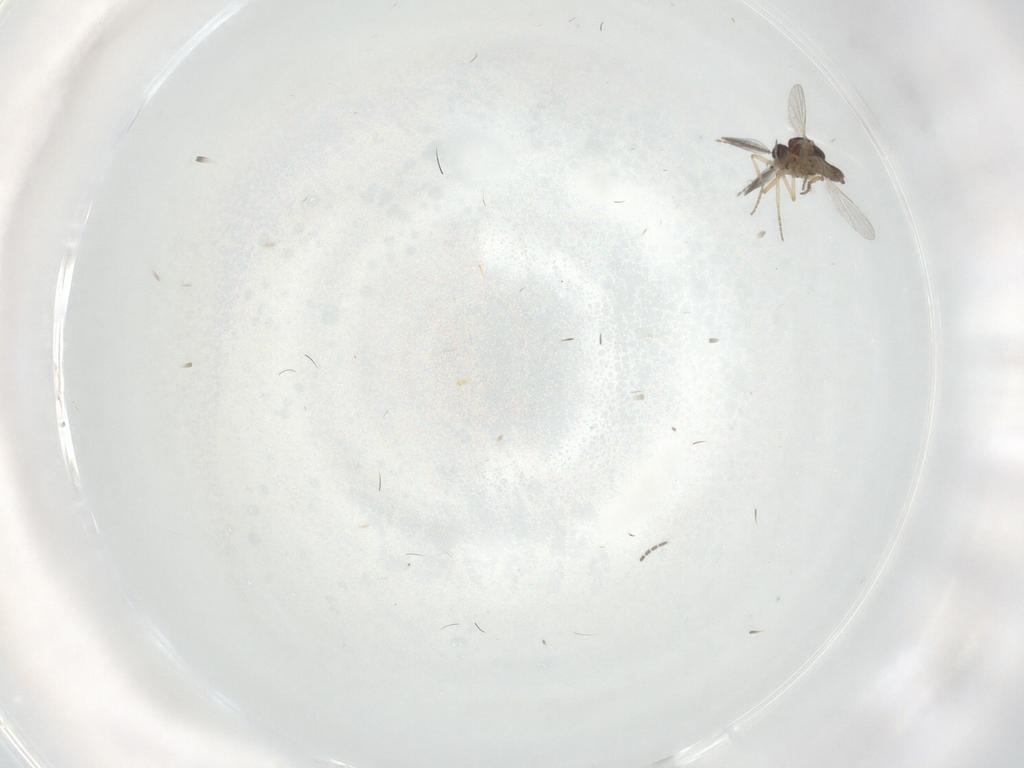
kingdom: Animalia
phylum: Arthropoda
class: Insecta
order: Diptera
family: Ceratopogonidae
